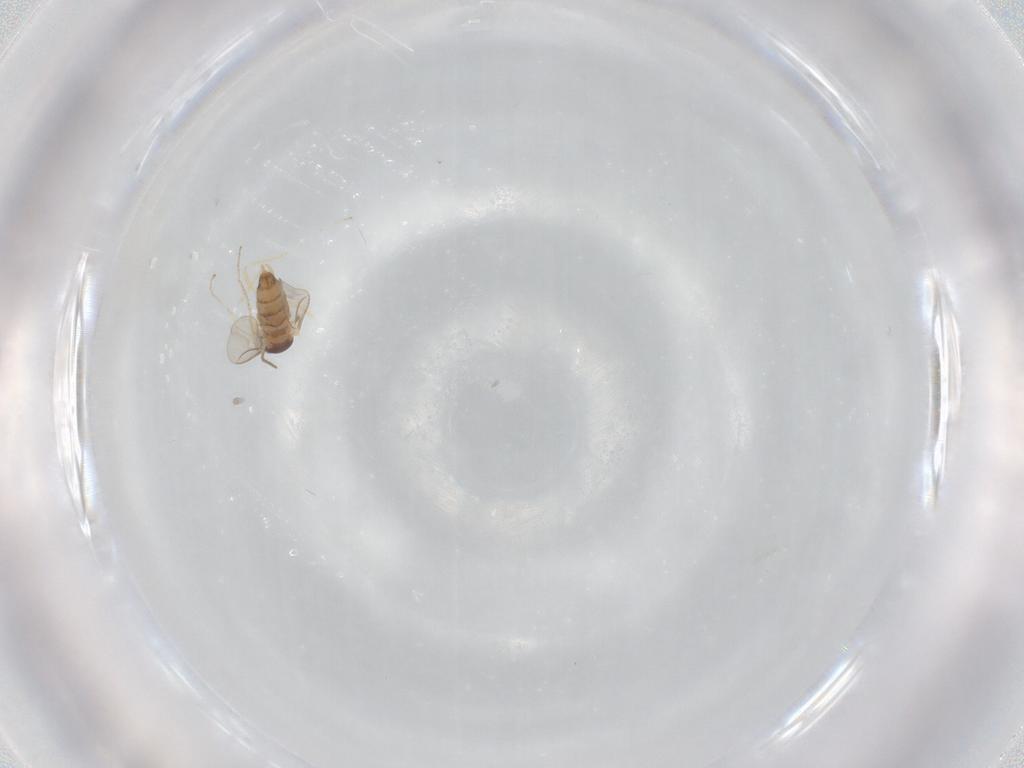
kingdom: Animalia
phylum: Arthropoda
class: Insecta
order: Diptera
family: Cecidomyiidae
